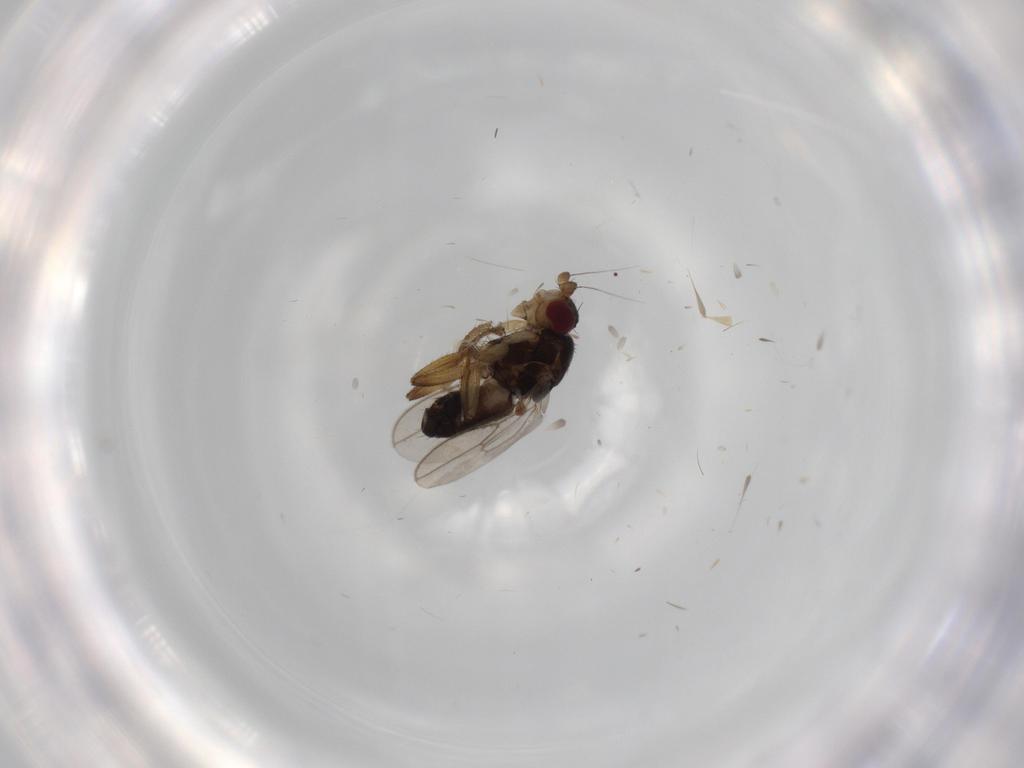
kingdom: Animalia
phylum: Arthropoda
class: Insecta
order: Diptera
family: Sphaeroceridae
